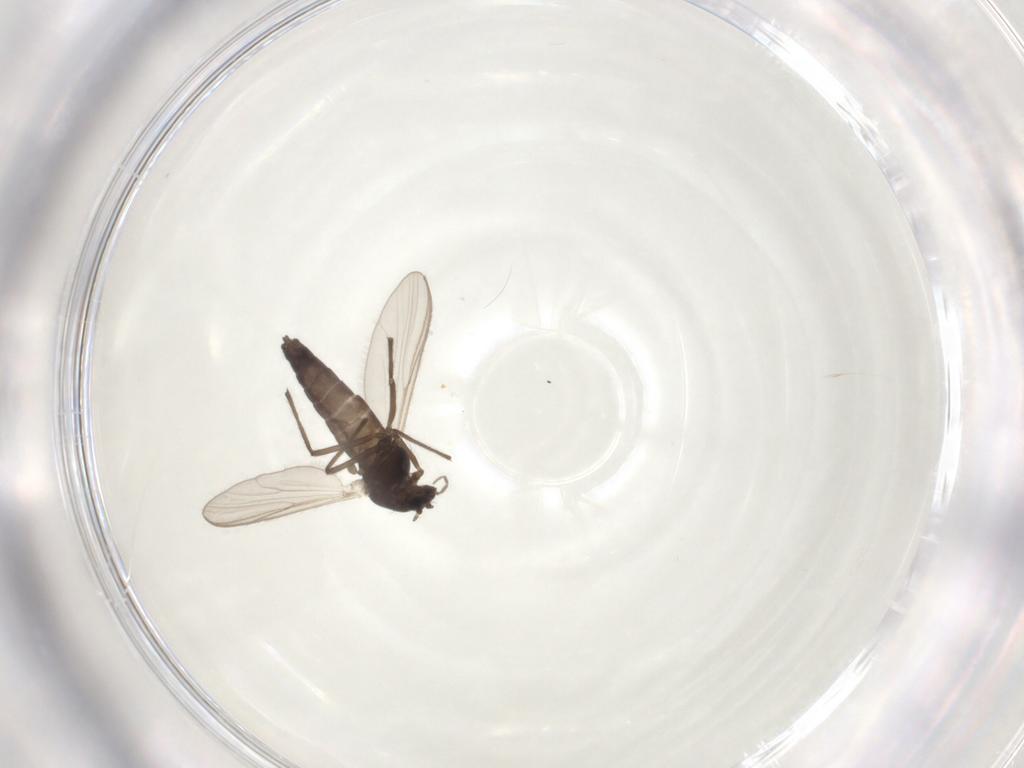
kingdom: Animalia
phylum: Arthropoda
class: Insecta
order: Diptera
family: Chironomidae
